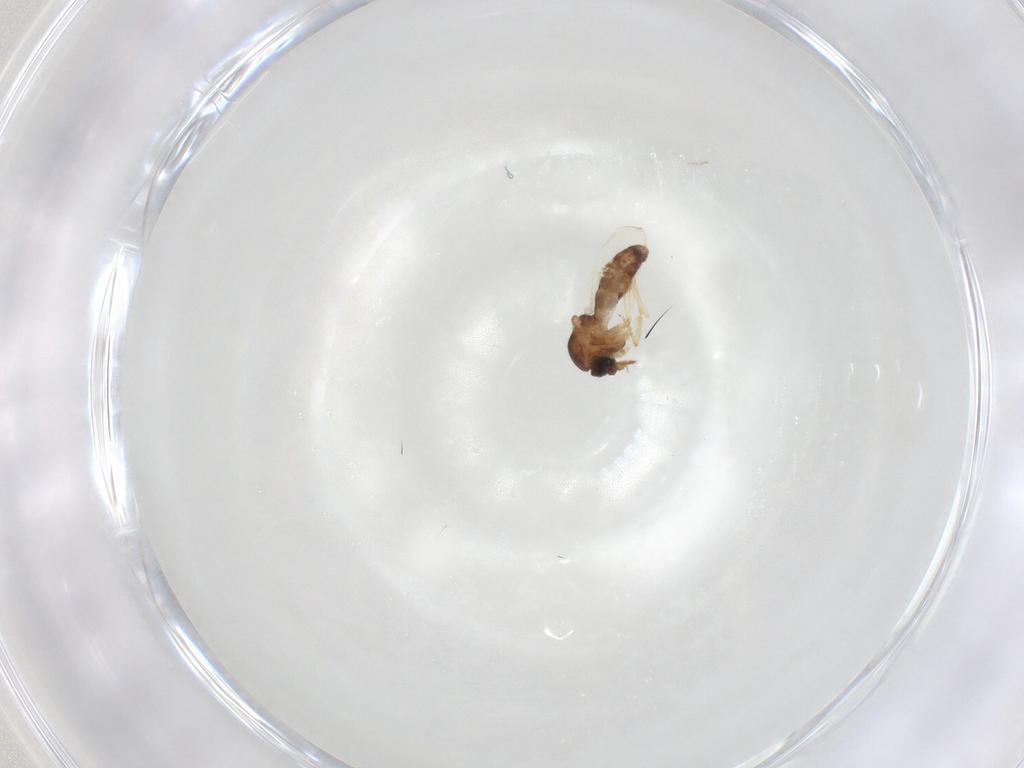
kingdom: Animalia
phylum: Arthropoda
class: Insecta
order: Diptera
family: Ceratopogonidae
